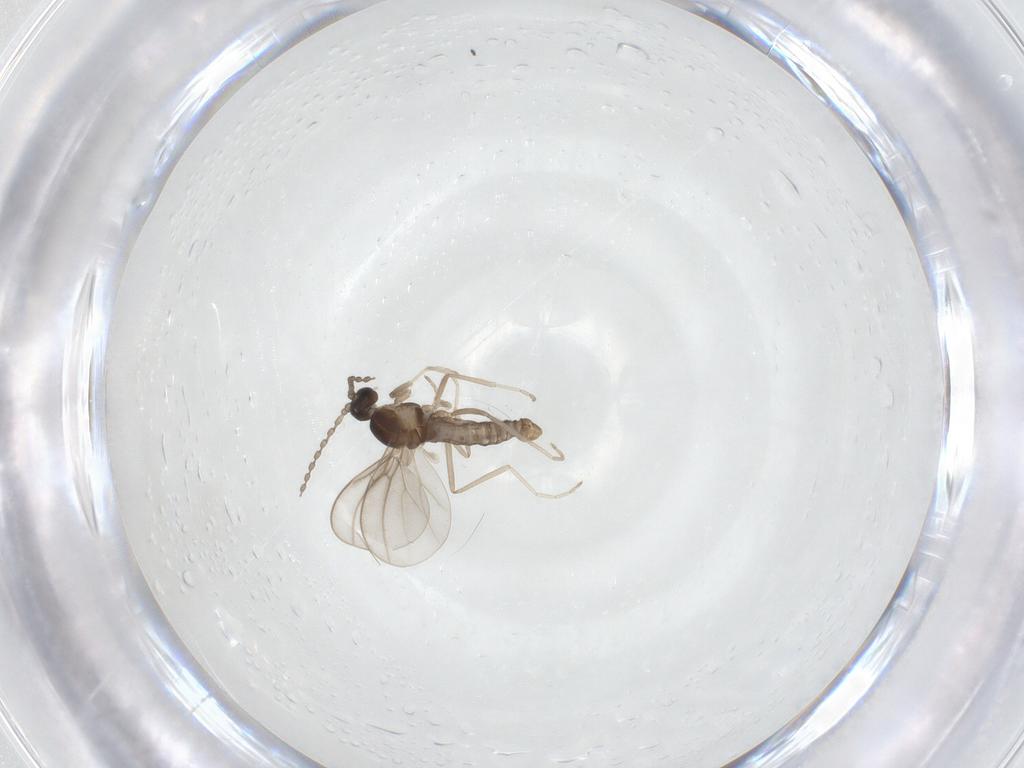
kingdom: Animalia
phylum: Arthropoda
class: Insecta
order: Diptera
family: Cecidomyiidae
